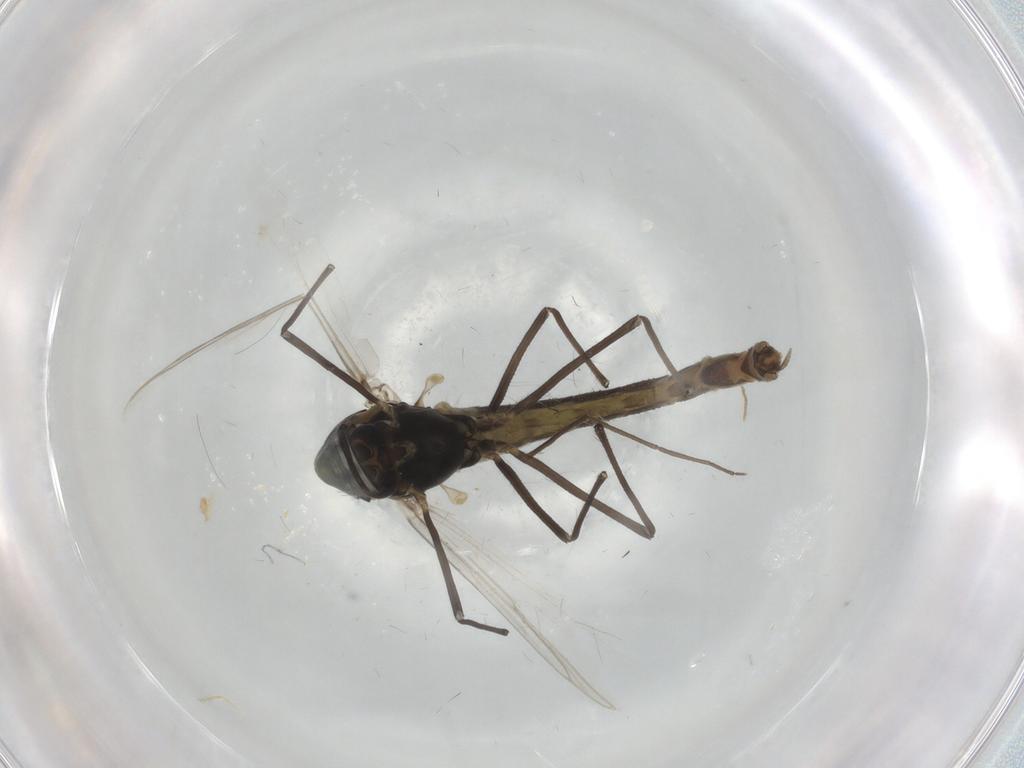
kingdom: Animalia
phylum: Arthropoda
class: Insecta
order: Diptera
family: Chironomidae
